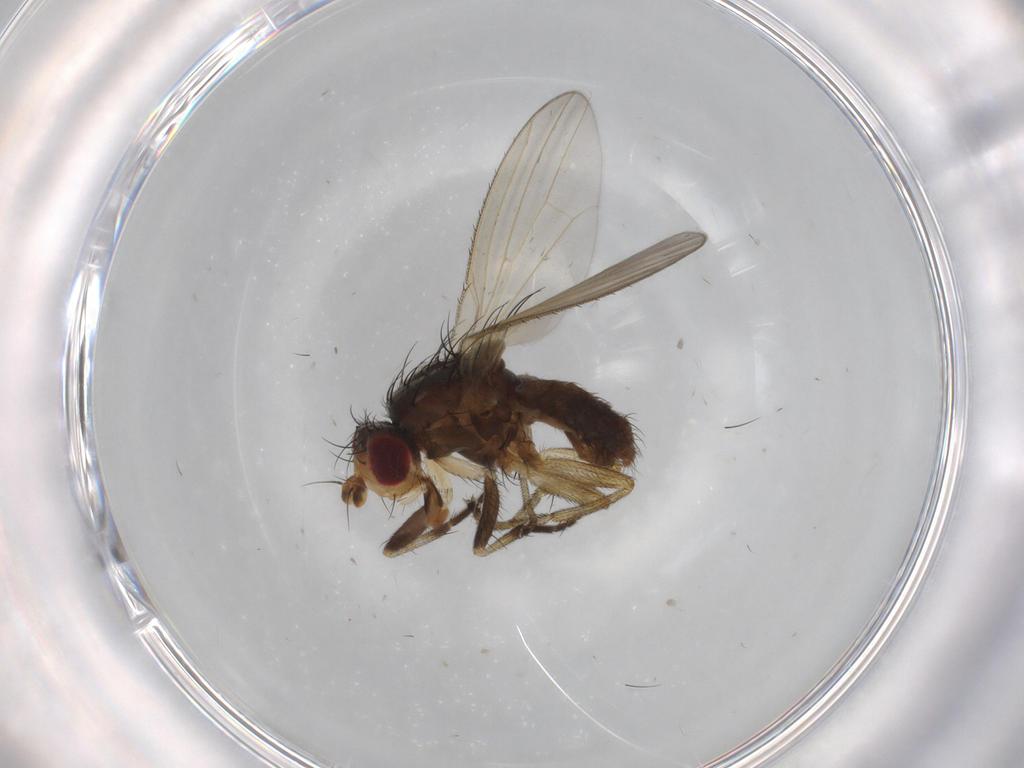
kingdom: Animalia
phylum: Arthropoda
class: Insecta
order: Diptera
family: Ulidiidae
